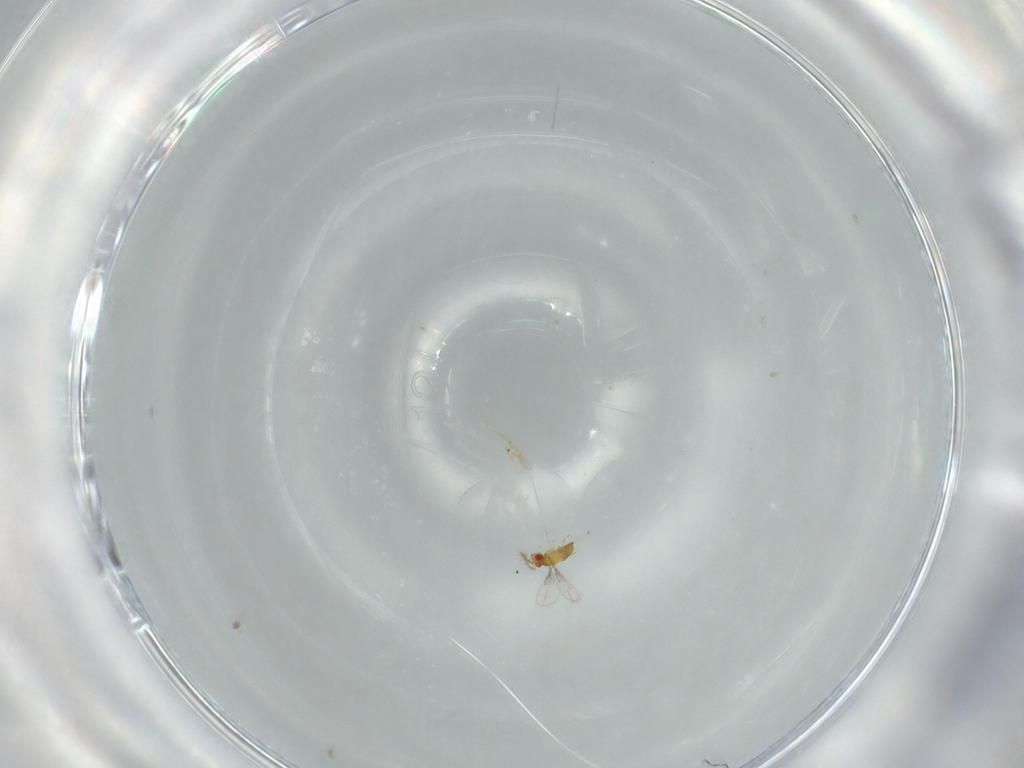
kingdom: Animalia
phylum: Arthropoda
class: Insecta
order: Hymenoptera
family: Trichogrammatidae
